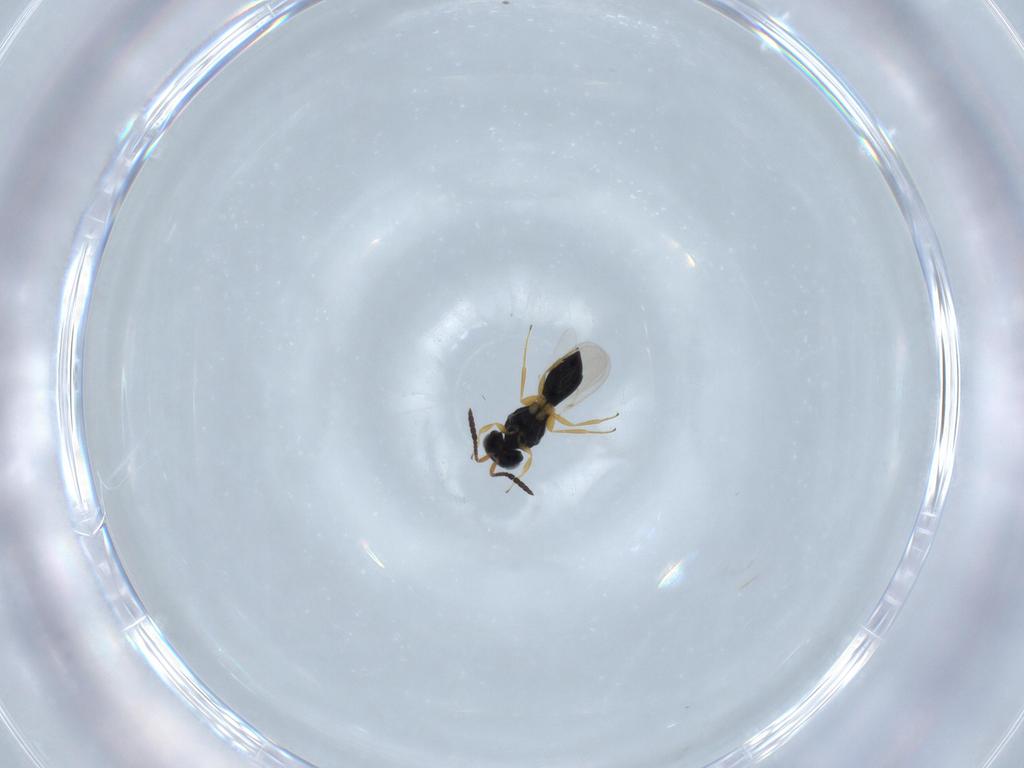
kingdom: Animalia
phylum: Arthropoda
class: Insecta
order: Hymenoptera
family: Scelionidae
